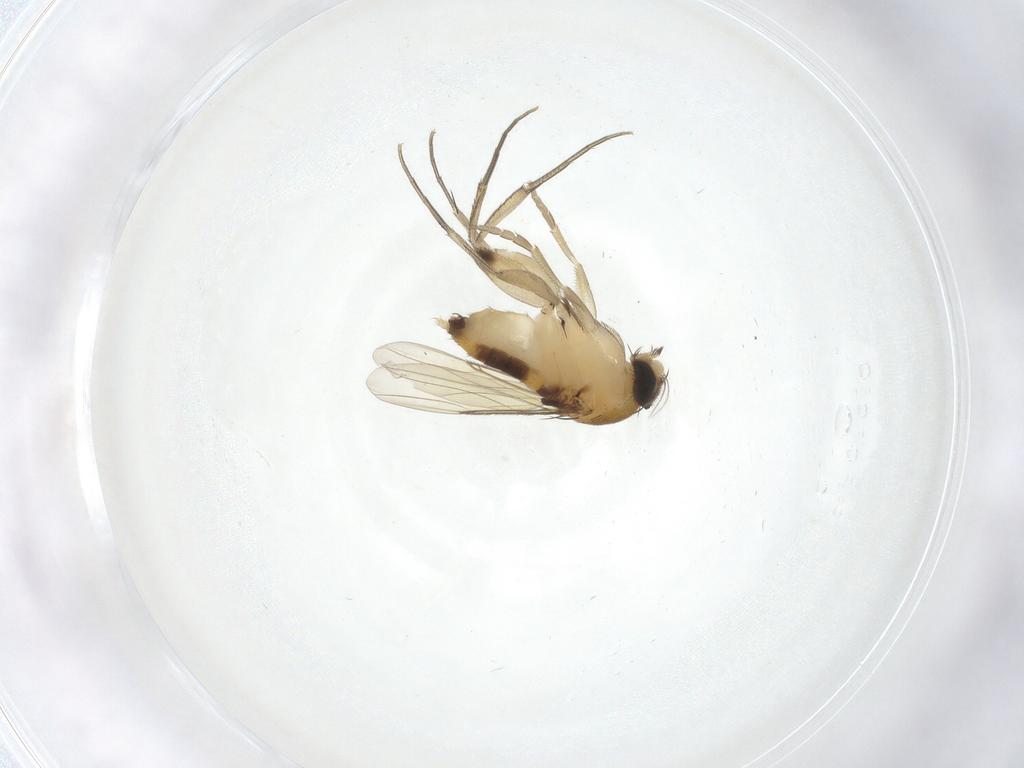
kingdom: Animalia
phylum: Arthropoda
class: Insecta
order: Diptera
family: Phoridae
